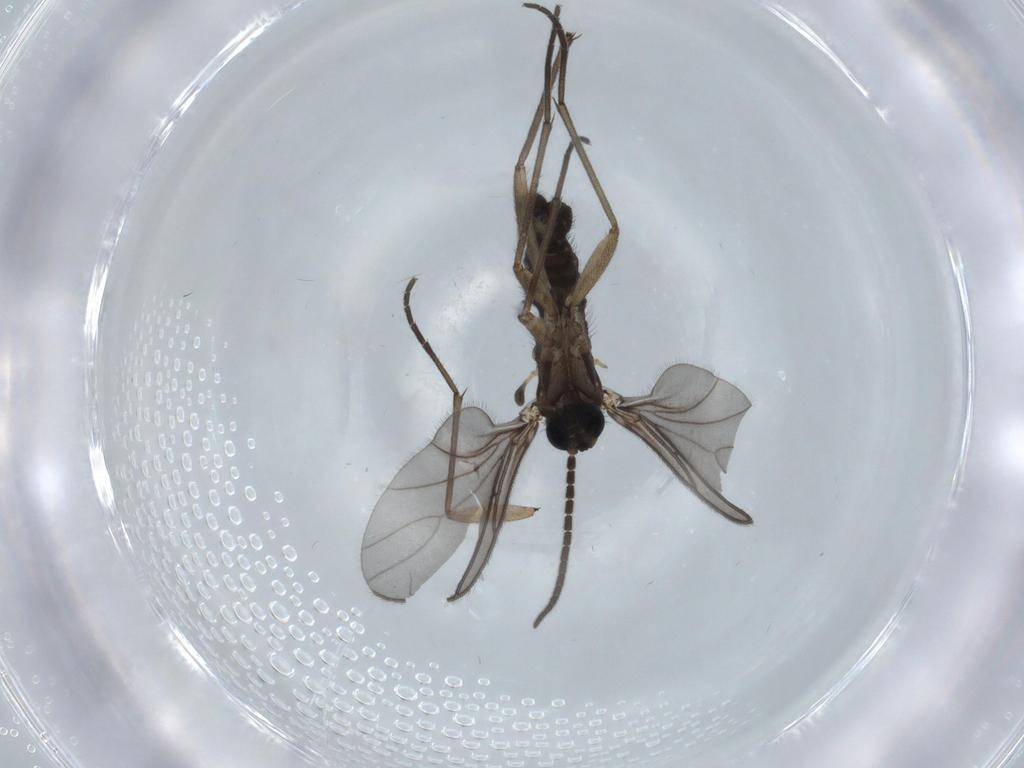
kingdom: Animalia
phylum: Arthropoda
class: Insecta
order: Diptera
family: Sciaridae
